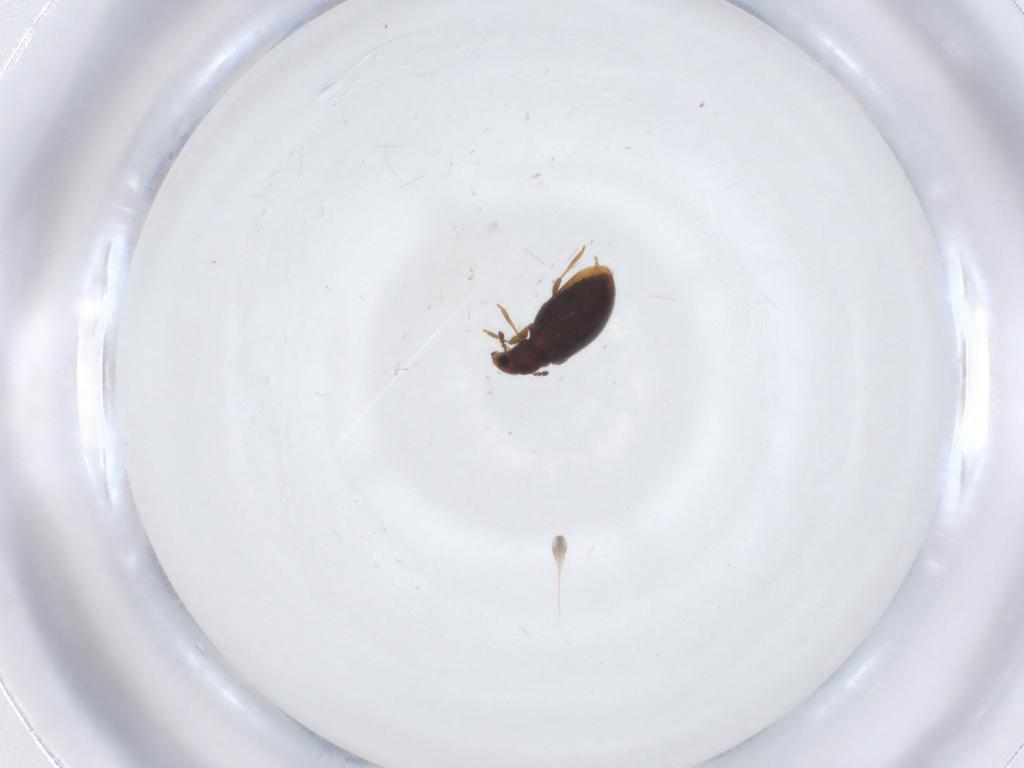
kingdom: Animalia
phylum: Arthropoda
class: Insecta
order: Coleoptera
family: Latridiidae
